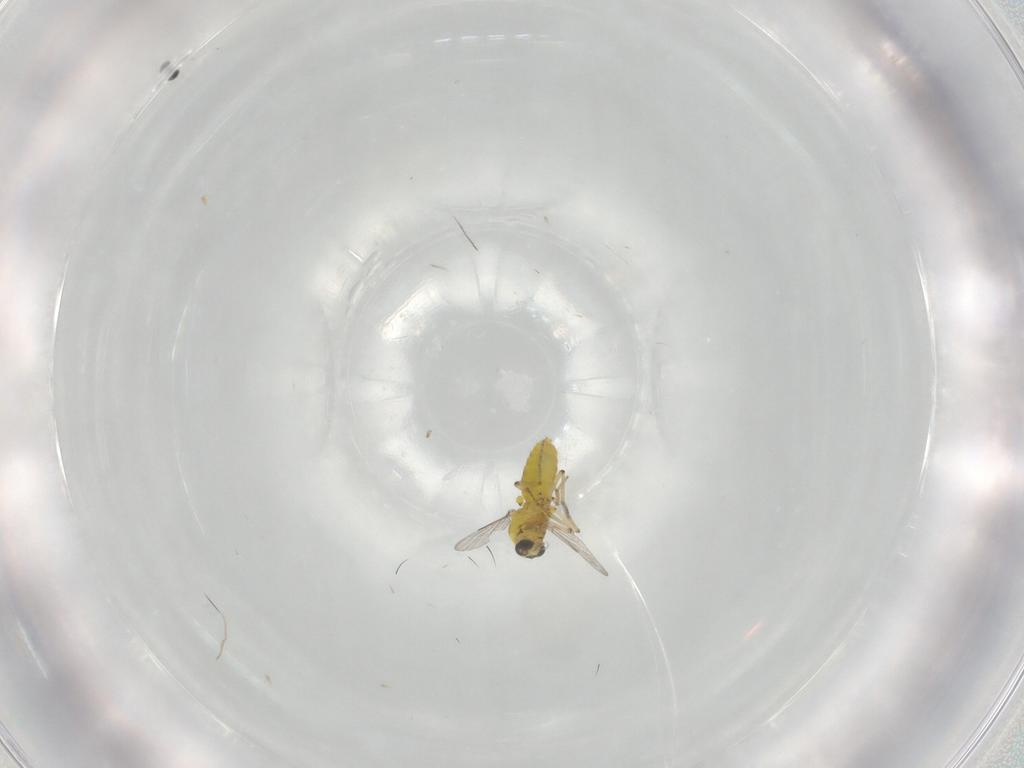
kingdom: Animalia
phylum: Arthropoda
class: Insecta
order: Diptera
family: Ceratopogonidae
